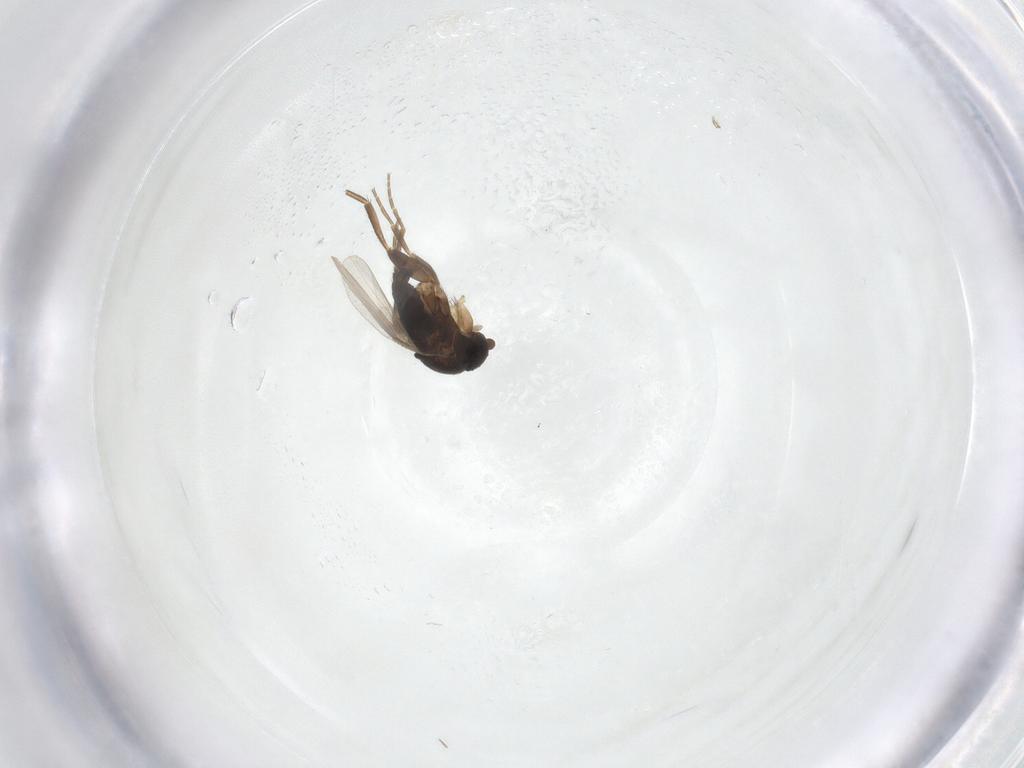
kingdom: Animalia
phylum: Arthropoda
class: Insecta
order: Diptera
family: Phoridae
